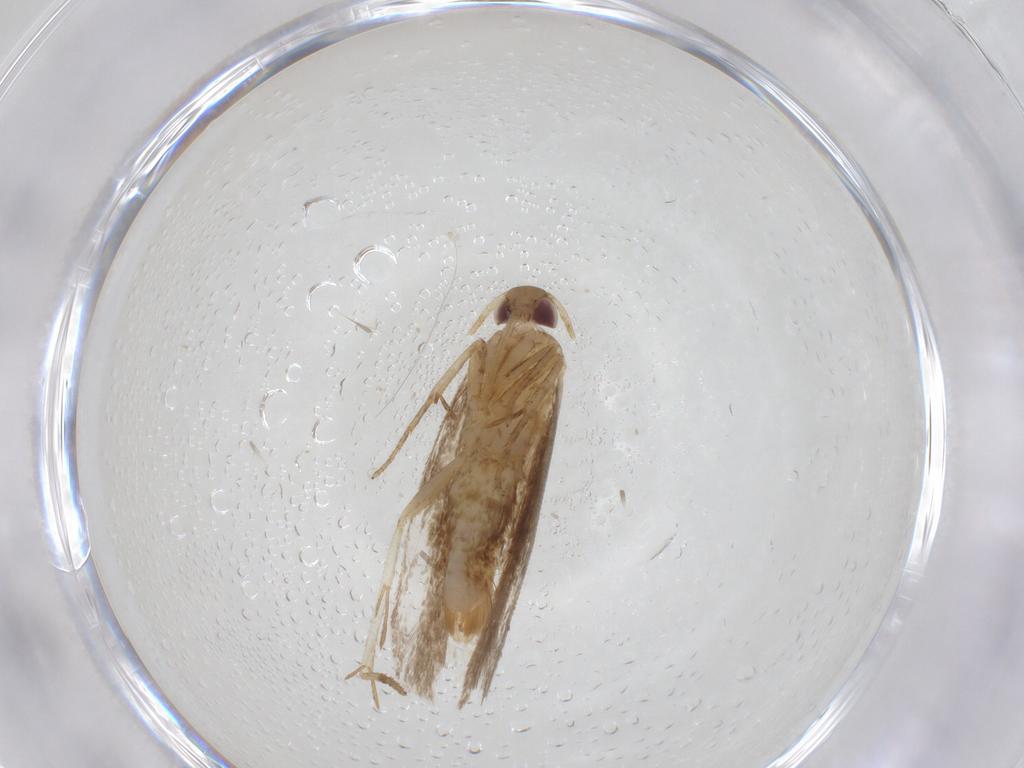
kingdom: Animalia
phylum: Arthropoda
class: Insecta
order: Lepidoptera
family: Gelechiidae
